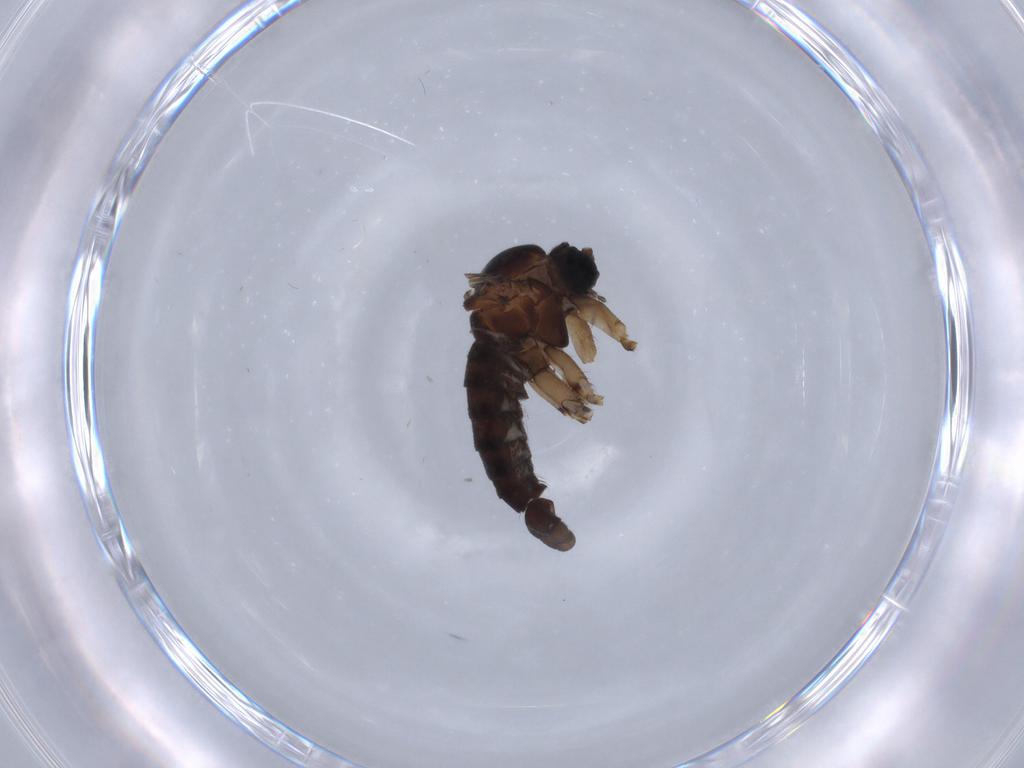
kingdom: Animalia
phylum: Arthropoda
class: Insecta
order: Diptera
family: Sciaridae
